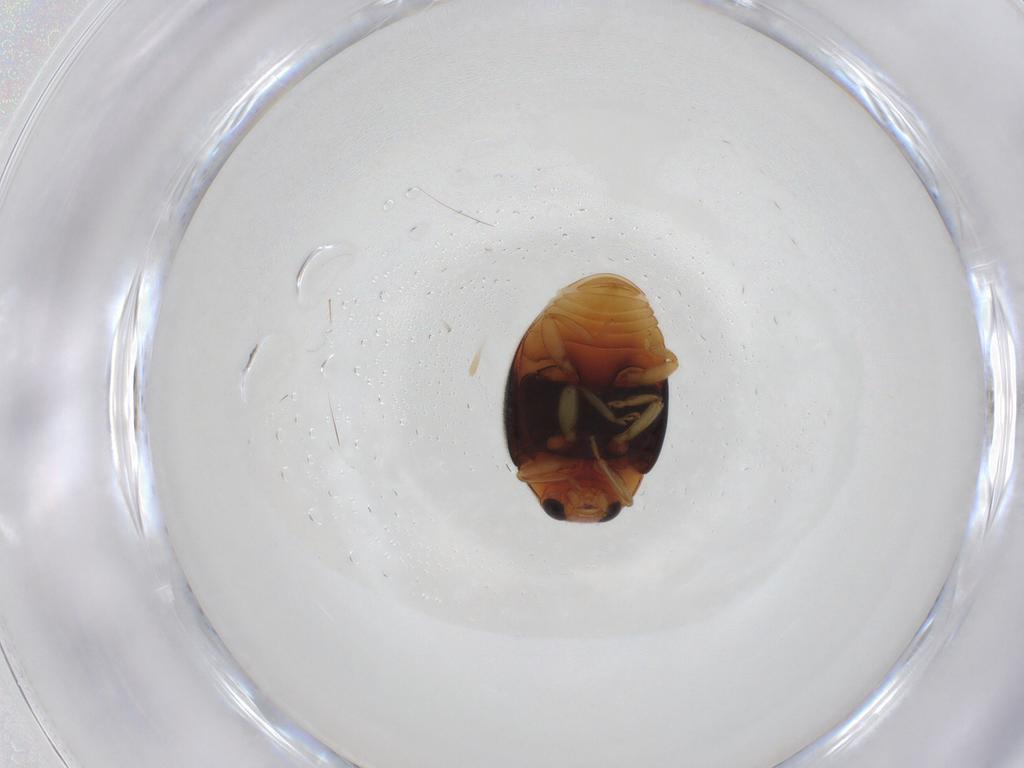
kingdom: Animalia
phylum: Arthropoda
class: Insecta
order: Coleoptera
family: Coccinellidae
